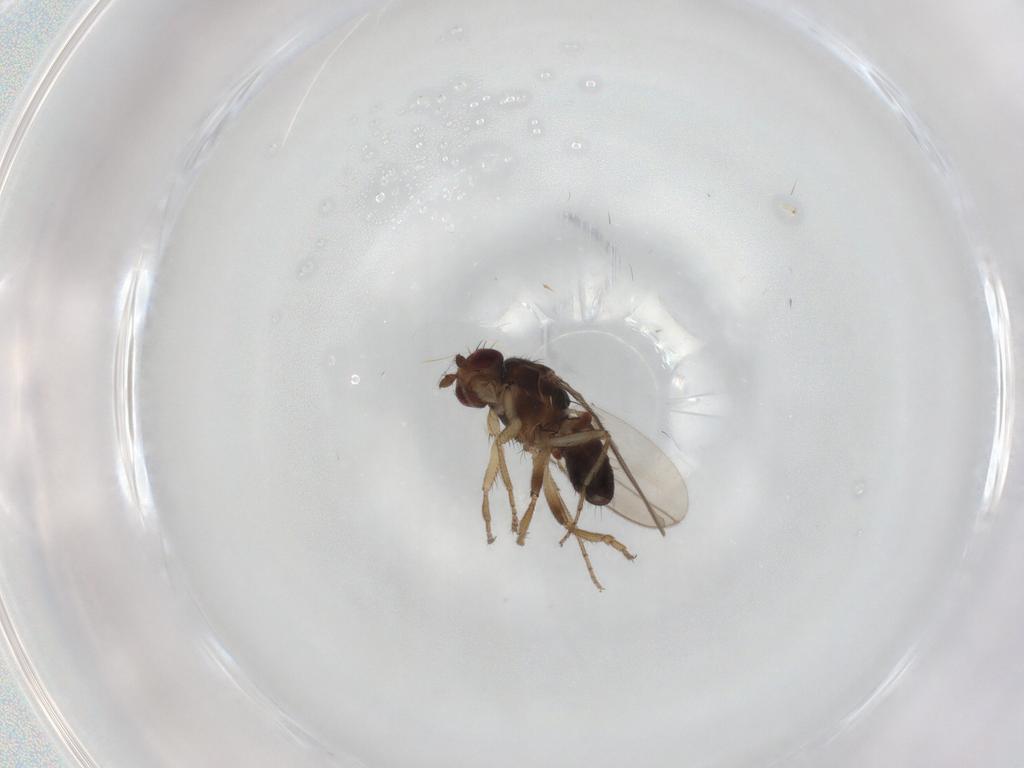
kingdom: Animalia
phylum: Arthropoda
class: Insecta
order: Diptera
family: Sphaeroceridae
